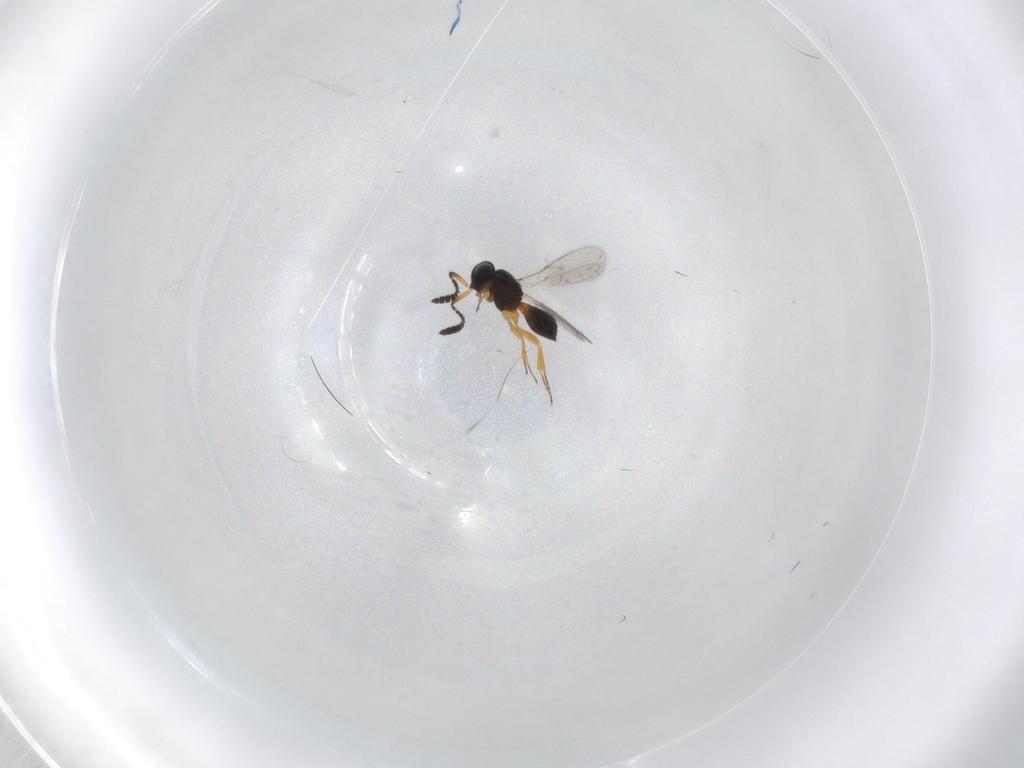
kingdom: Animalia
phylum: Arthropoda
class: Insecta
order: Hymenoptera
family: Scelionidae
